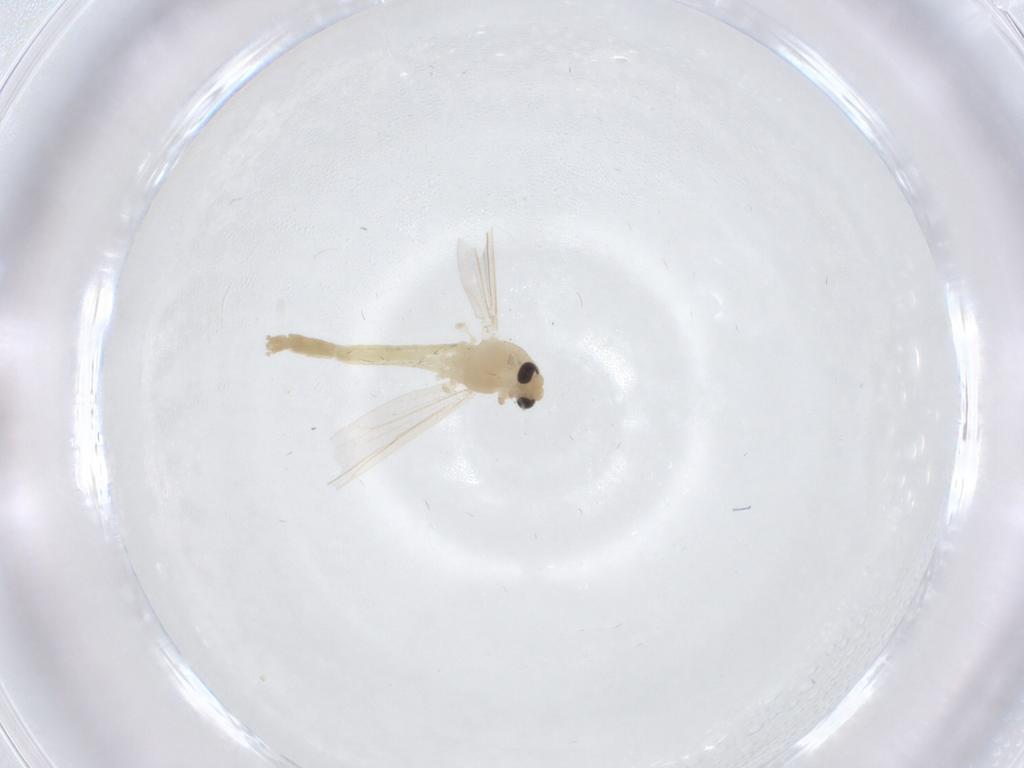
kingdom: Animalia
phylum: Arthropoda
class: Insecta
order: Diptera
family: Chironomidae
